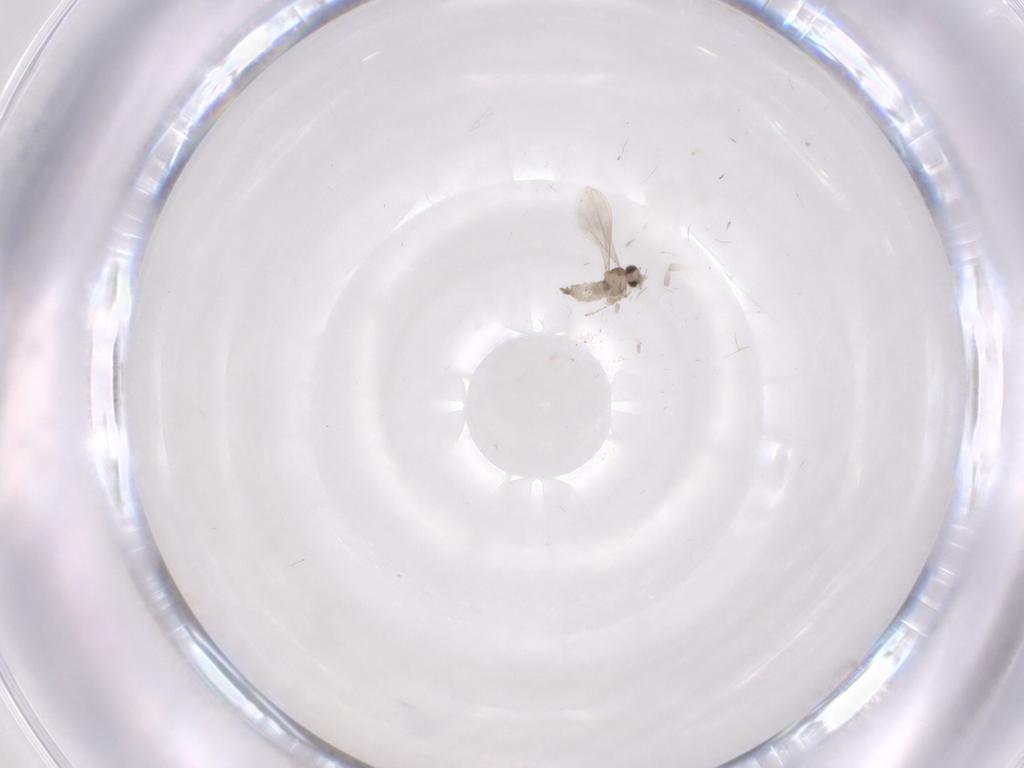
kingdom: Animalia
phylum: Arthropoda
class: Insecta
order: Diptera
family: Cecidomyiidae
